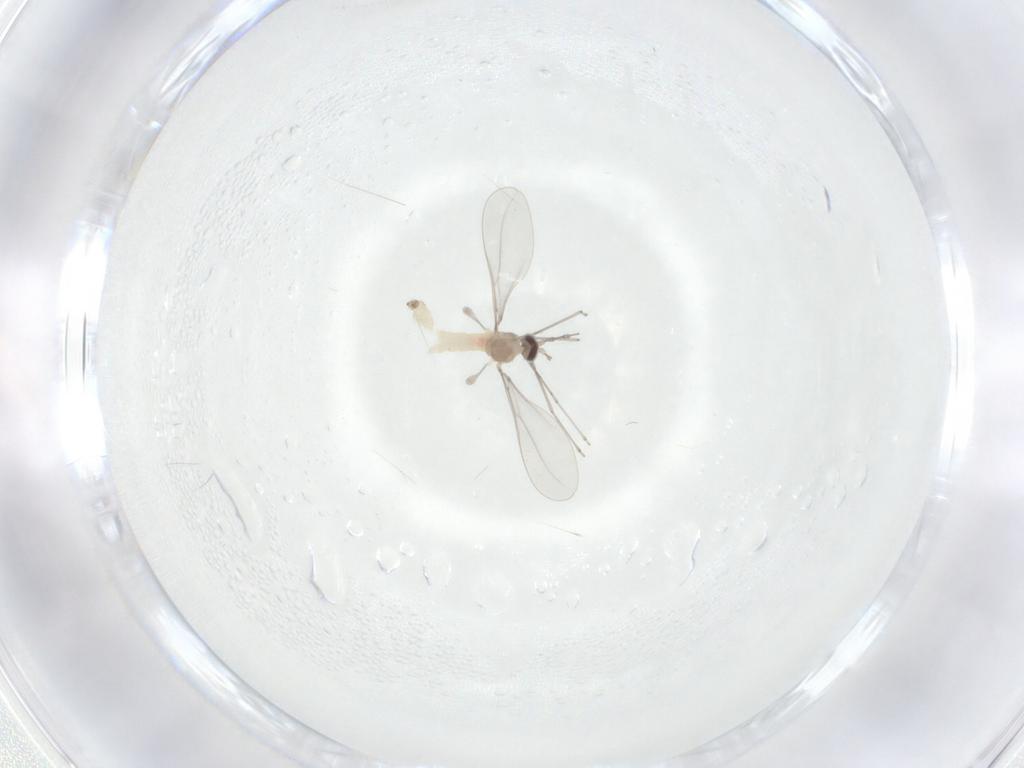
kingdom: Animalia
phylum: Arthropoda
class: Insecta
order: Diptera
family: Cecidomyiidae
